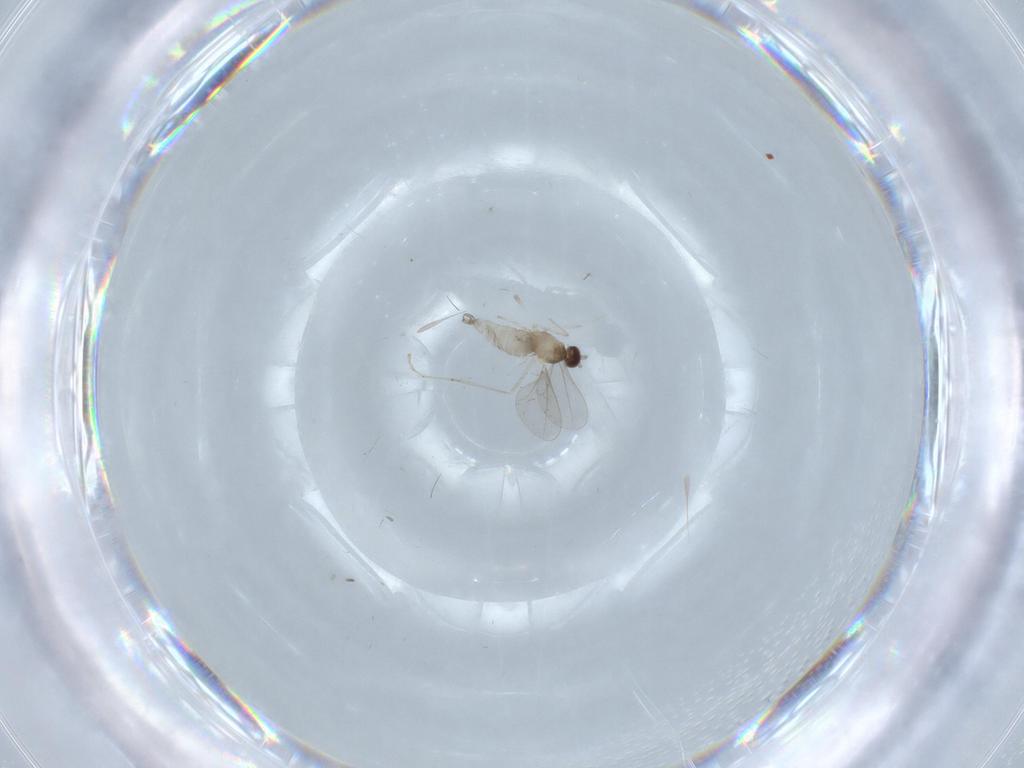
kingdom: Animalia
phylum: Arthropoda
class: Insecta
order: Diptera
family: Cecidomyiidae
